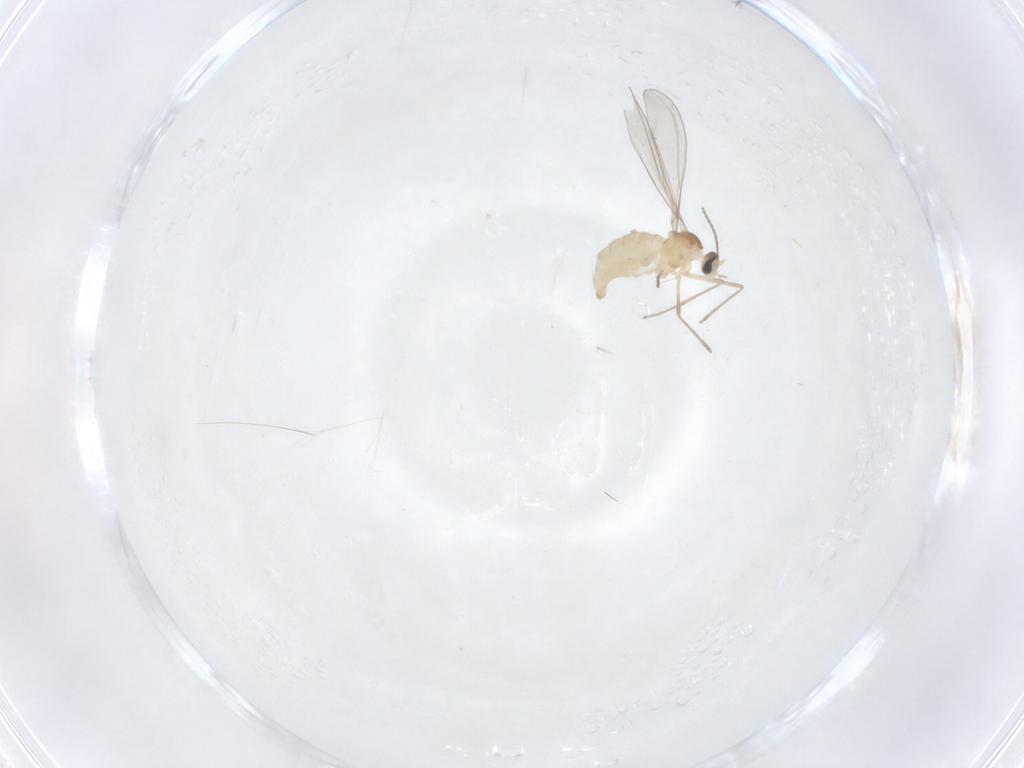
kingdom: Animalia
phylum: Arthropoda
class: Insecta
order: Diptera
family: Cecidomyiidae
